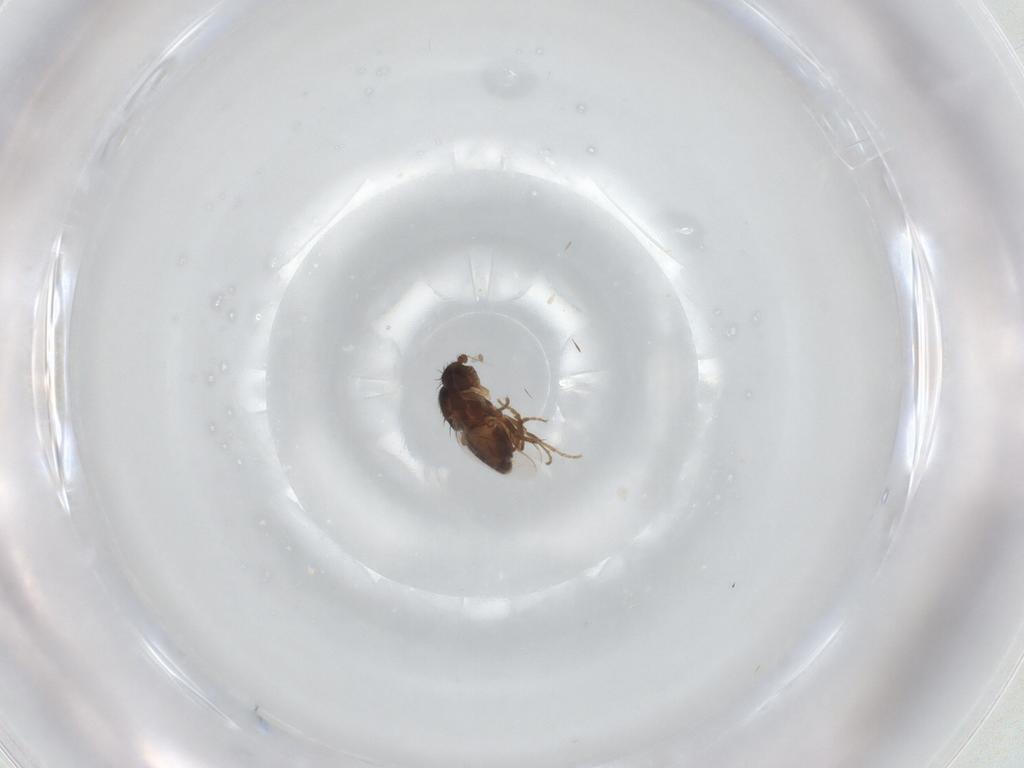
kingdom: Animalia
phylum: Arthropoda
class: Insecta
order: Diptera
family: Sphaeroceridae
